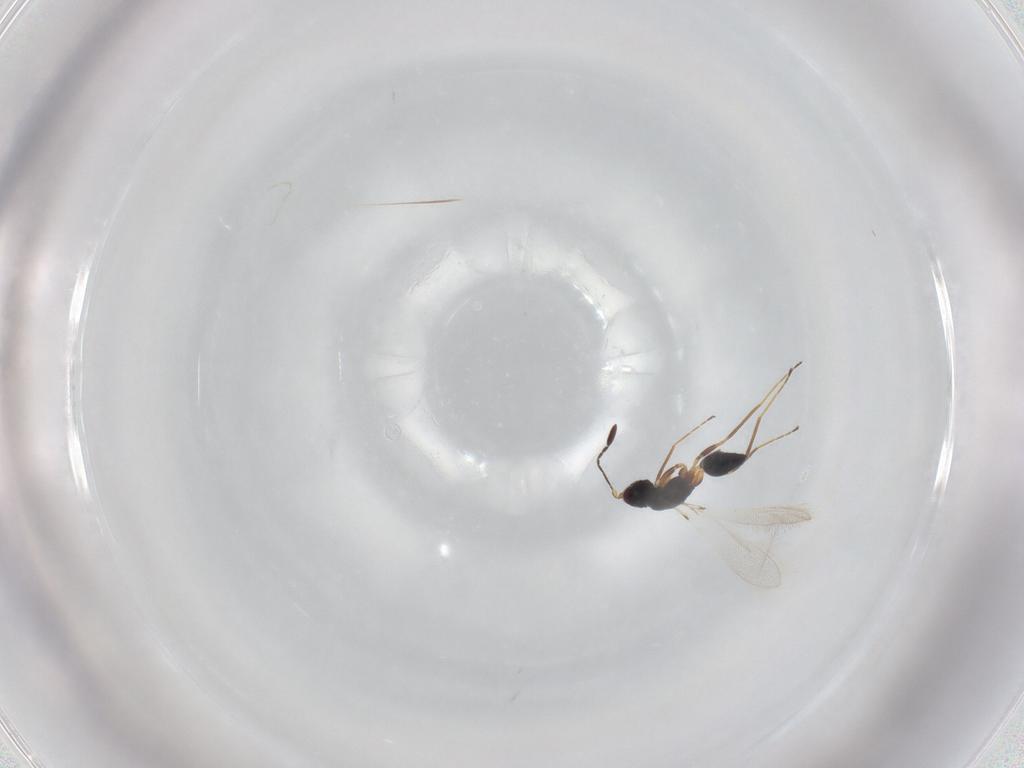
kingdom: Animalia
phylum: Arthropoda
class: Insecta
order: Hymenoptera
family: Mymaridae
